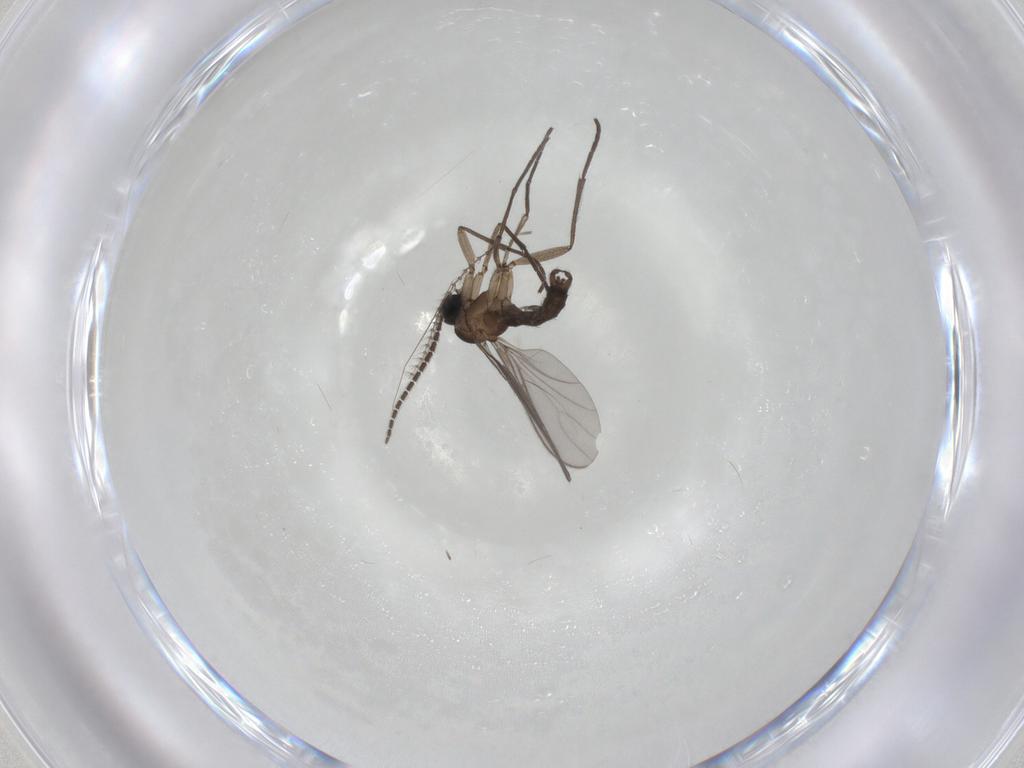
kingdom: Animalia
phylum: Arthropoda
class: Insecta
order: Diptera
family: Sciaridae
